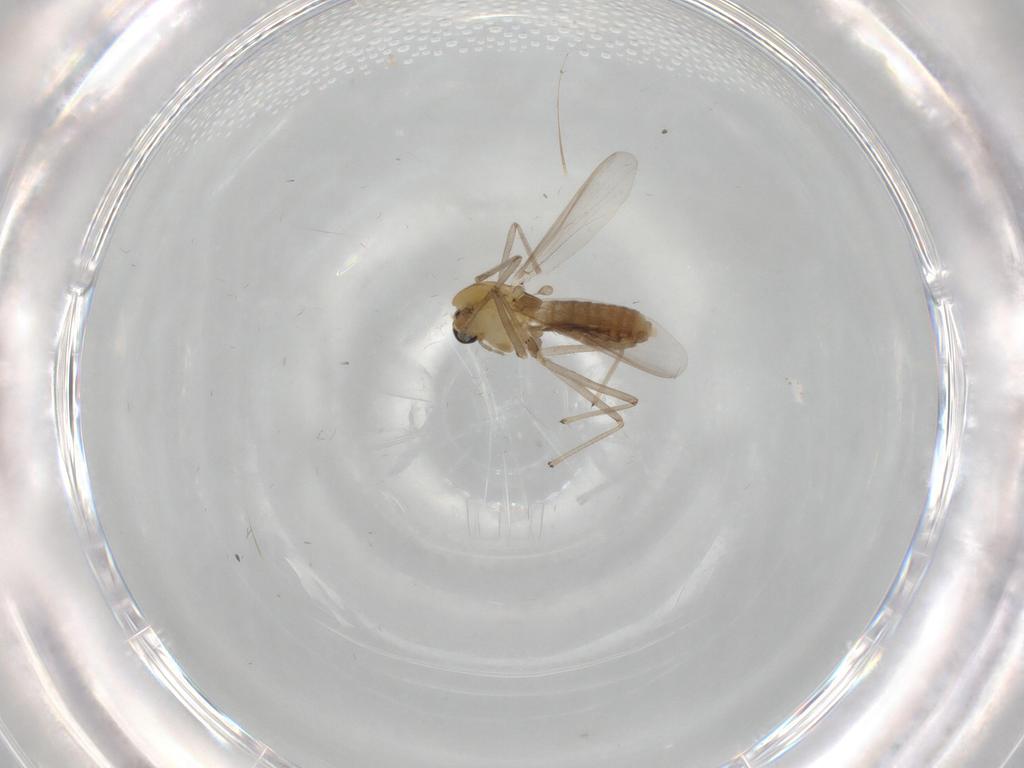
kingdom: Animalia
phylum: Arthropoda
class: Insecta
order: Diptera
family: Chironomidae
